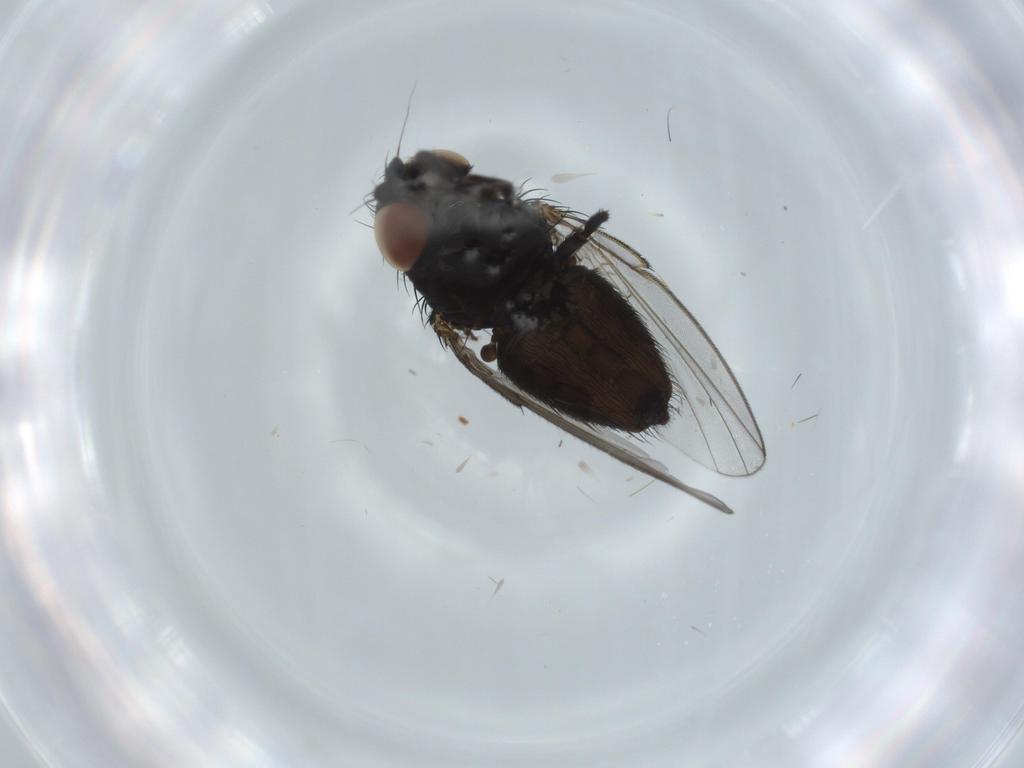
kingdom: Animalia
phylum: Arthropoda
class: Insecta
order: Diptera
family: Milichiidae
